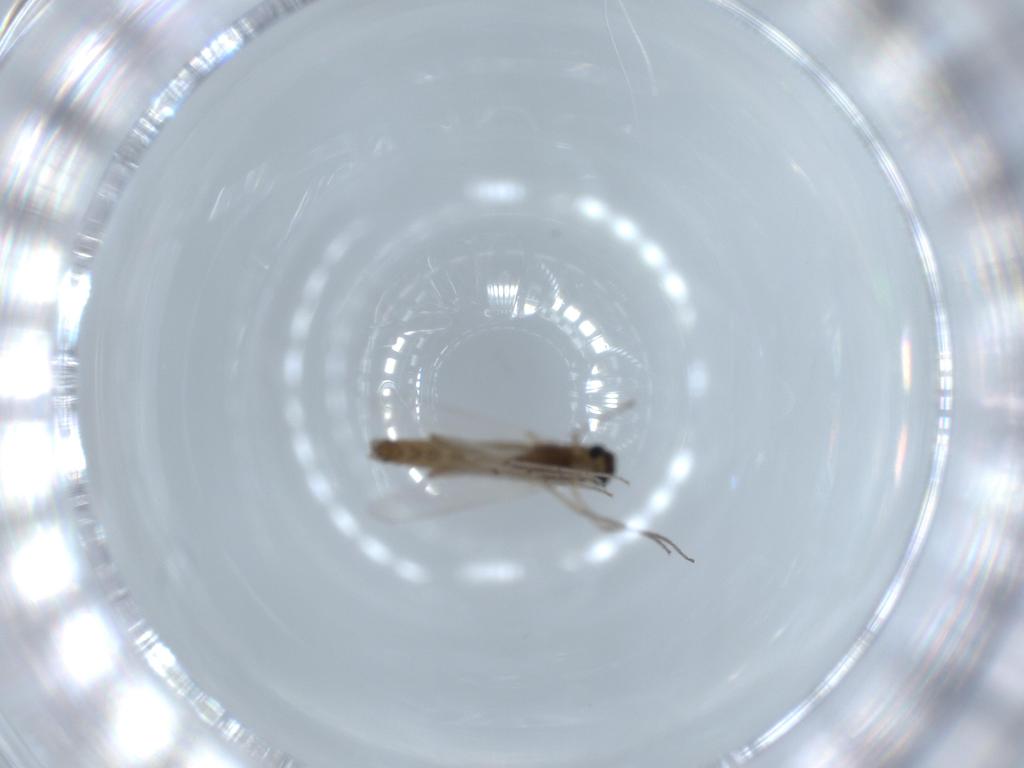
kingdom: Animalia
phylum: Arthropoda
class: Insecta
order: Diptera
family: Chironomidae
